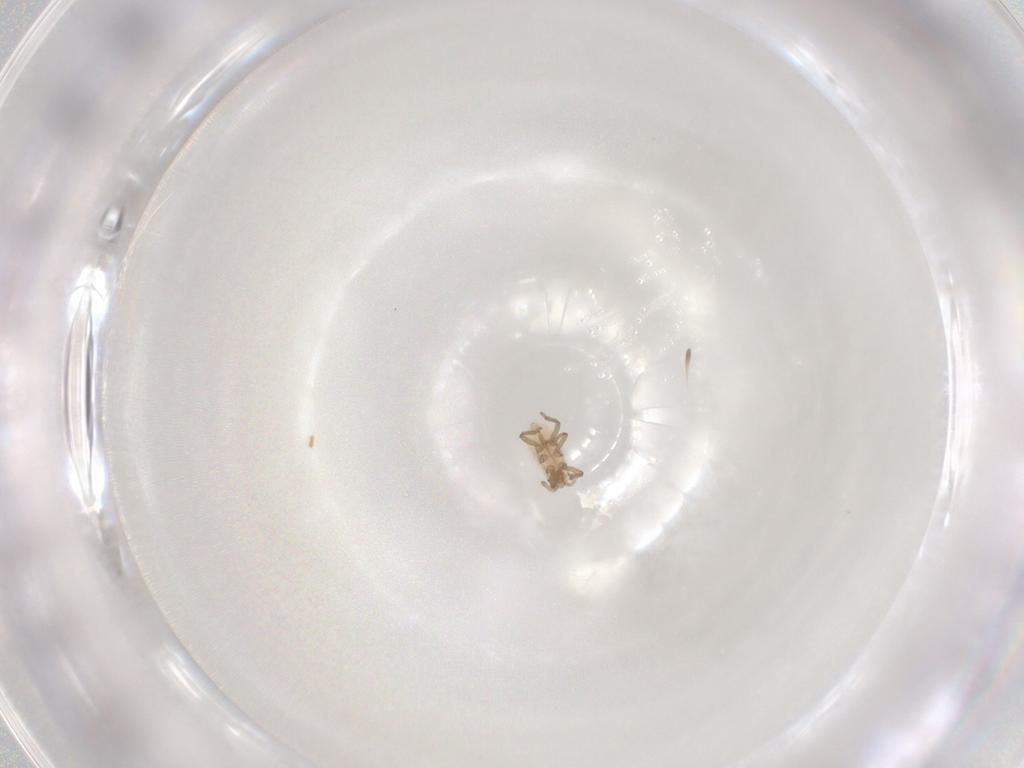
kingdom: Animalia
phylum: Arthropoda
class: Insecta
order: Hemiptera
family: Aphididae
